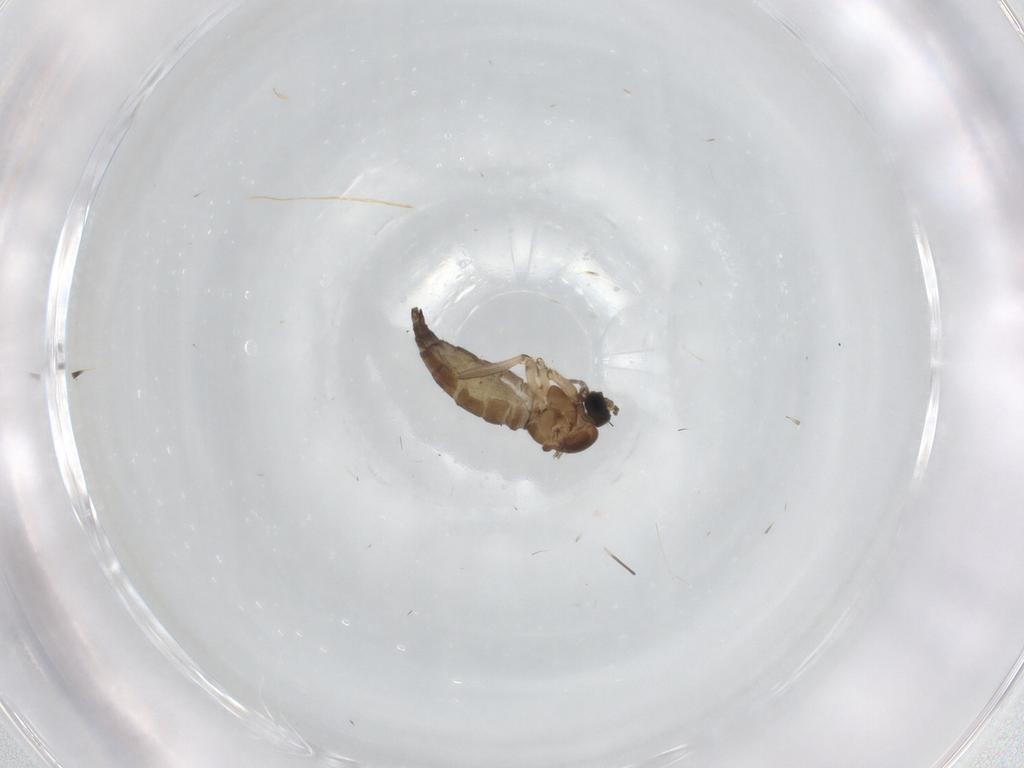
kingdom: Animalia
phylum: Arthropoda
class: Insecta
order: Diptera
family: Sciaridae
